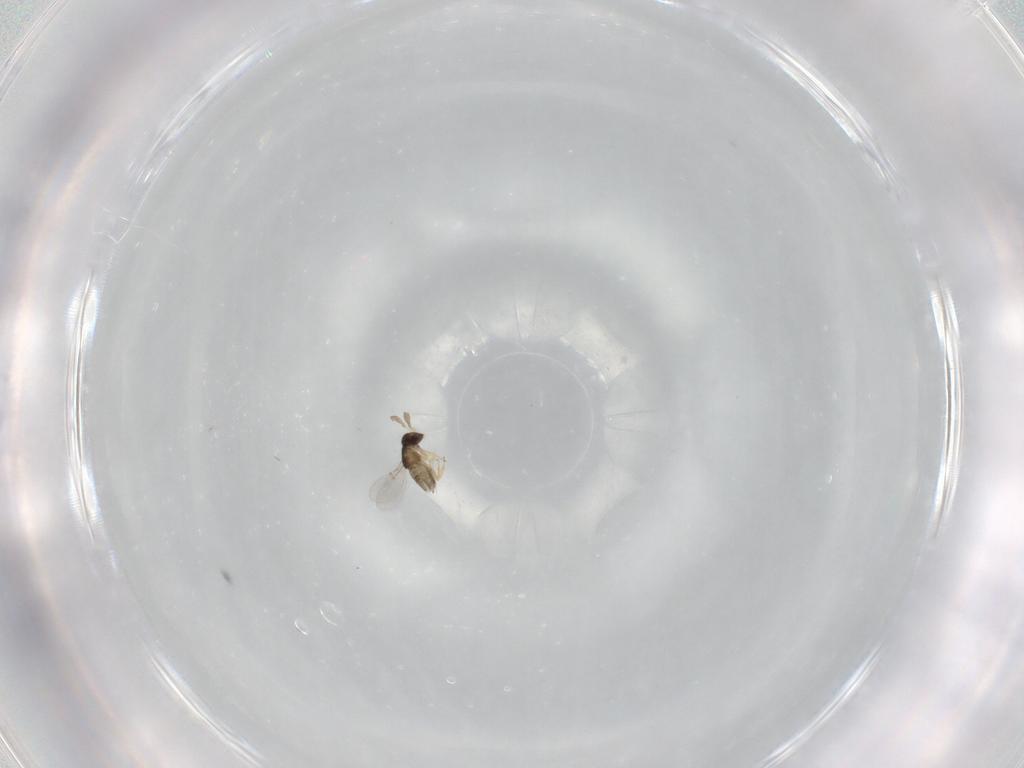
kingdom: Animalia
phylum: Arthropoda
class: Insecta
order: Hymenoptera
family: Encyrtidae
